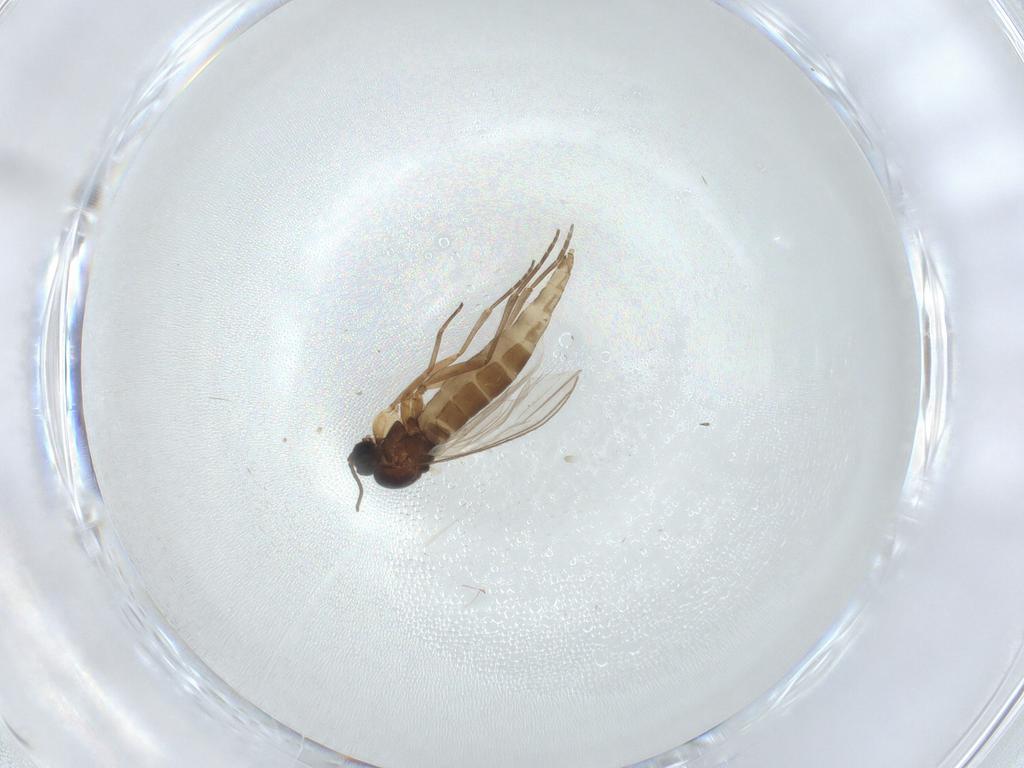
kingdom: Animalia
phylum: Arthropoda
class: Insecta
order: Diptera
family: Sciaridae
